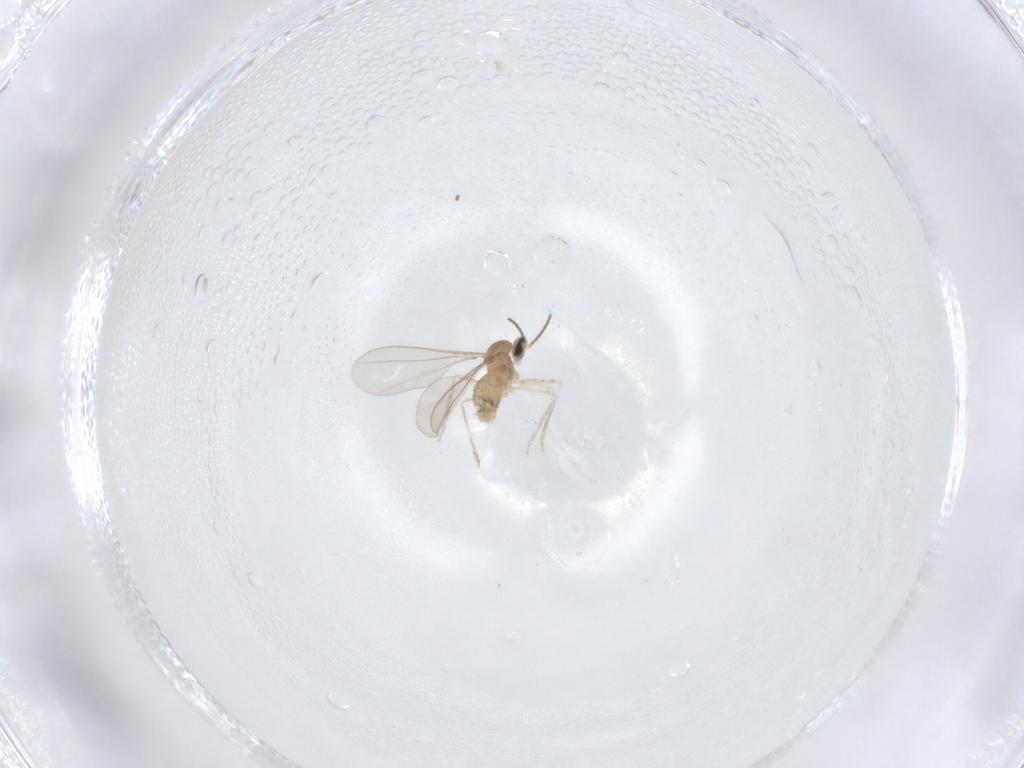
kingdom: Animalia
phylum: Arthropoda
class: Insecta
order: Diptera
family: Cecidomyiidae
